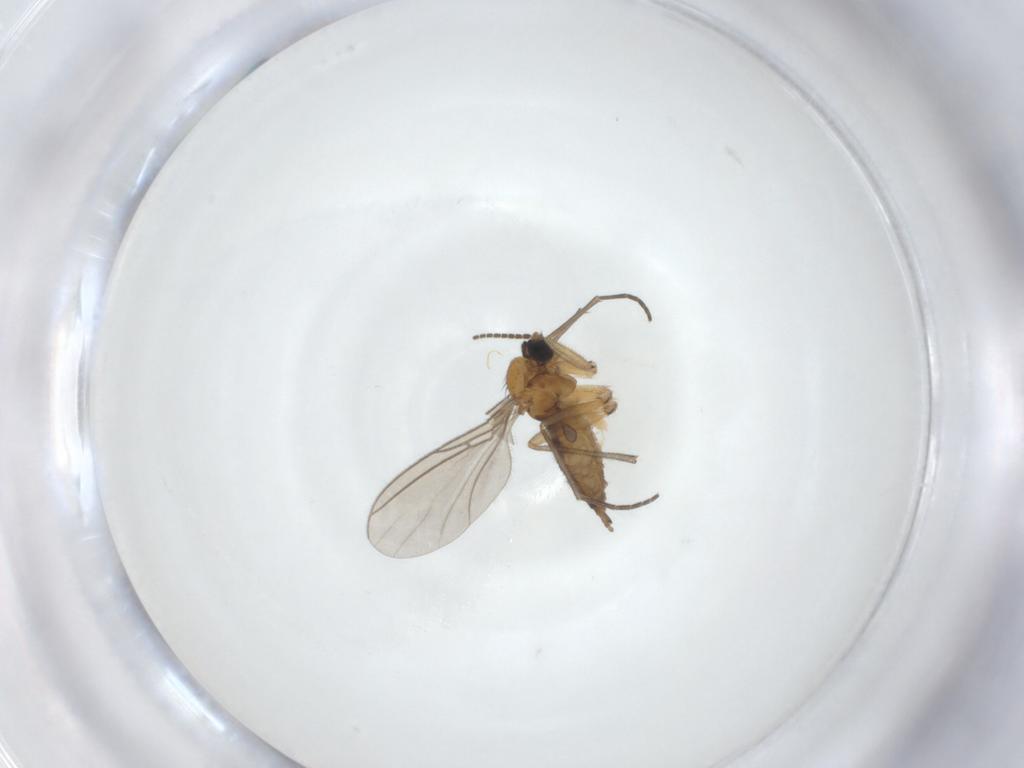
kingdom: Animalia
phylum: Arthropoda
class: Insecta
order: Diptera
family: Sciaridae
